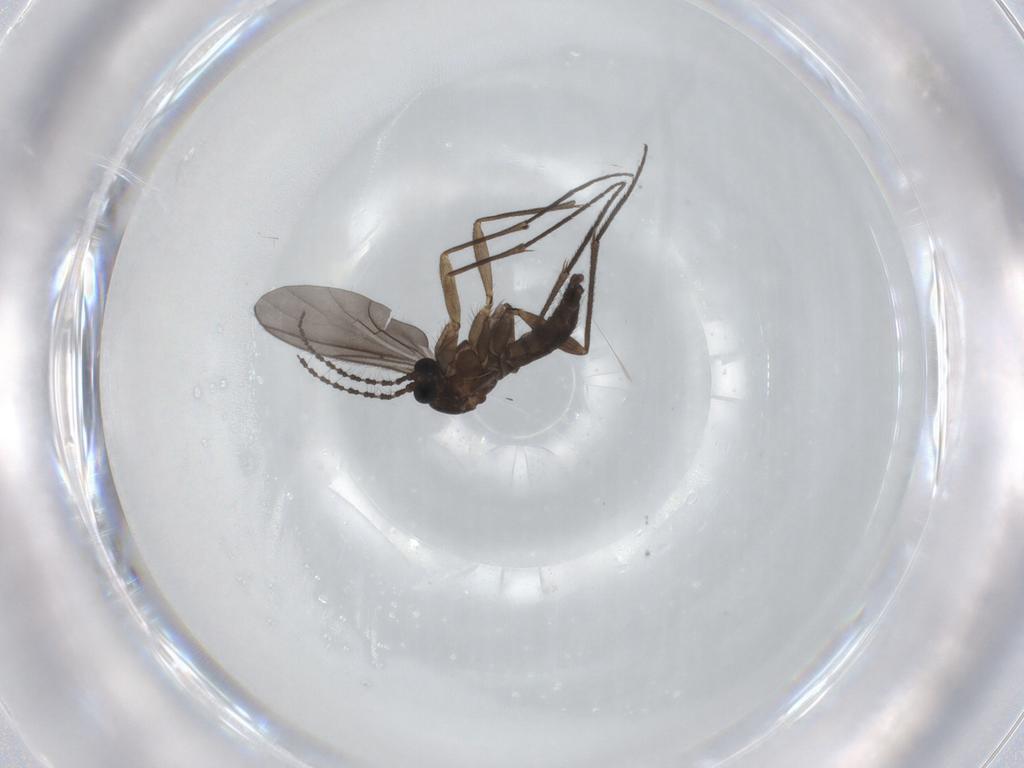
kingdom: Animalia
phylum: Arthropoda
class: Insecta
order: Diptera
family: Sciaridae
